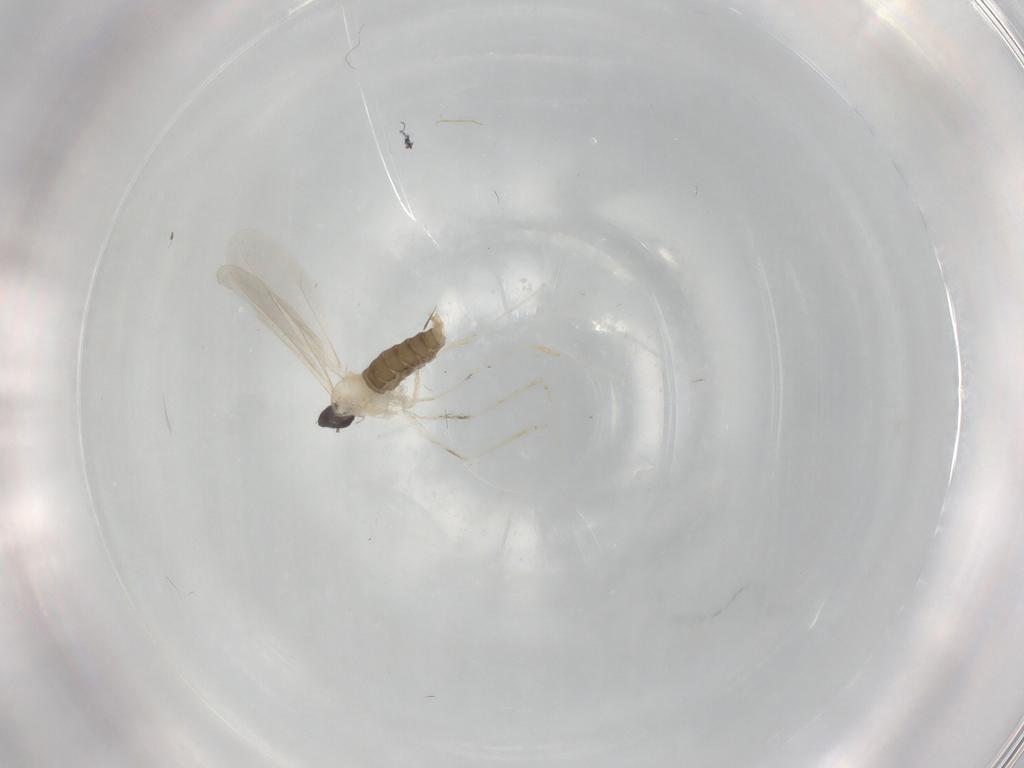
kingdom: Animalia
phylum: Arthropoda
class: Insecta
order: Diptera
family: Cecidomyiidae
